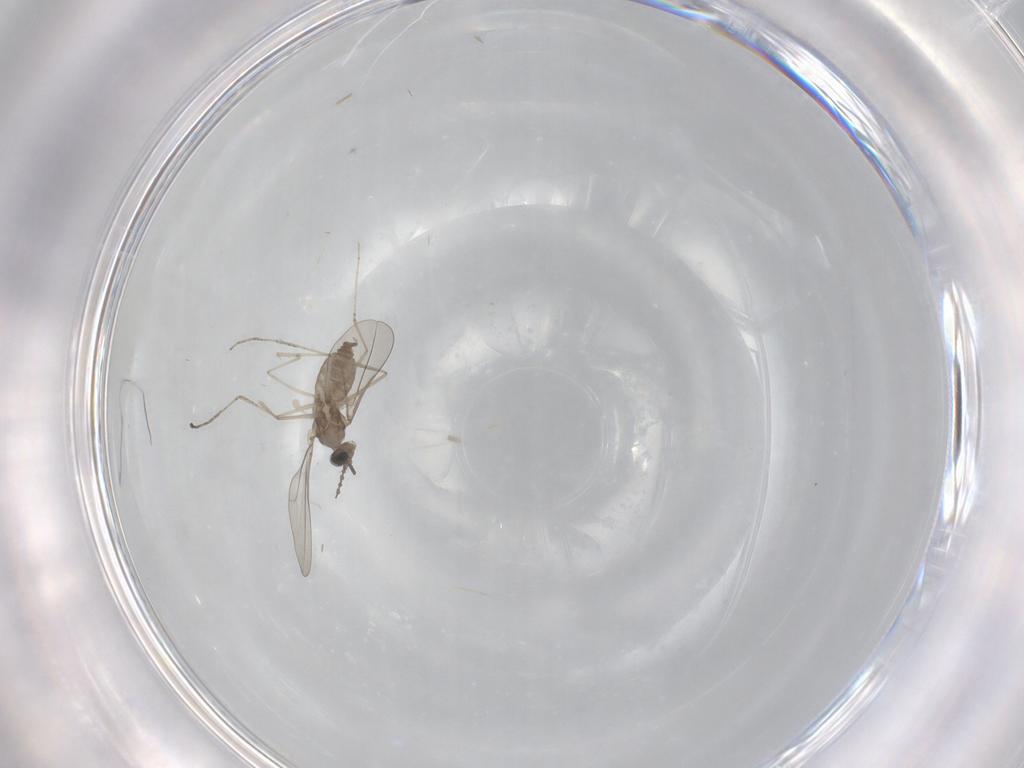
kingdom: Animalia
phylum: Arthropoda
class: Insecta
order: Diptera
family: Cecidomyiidae
